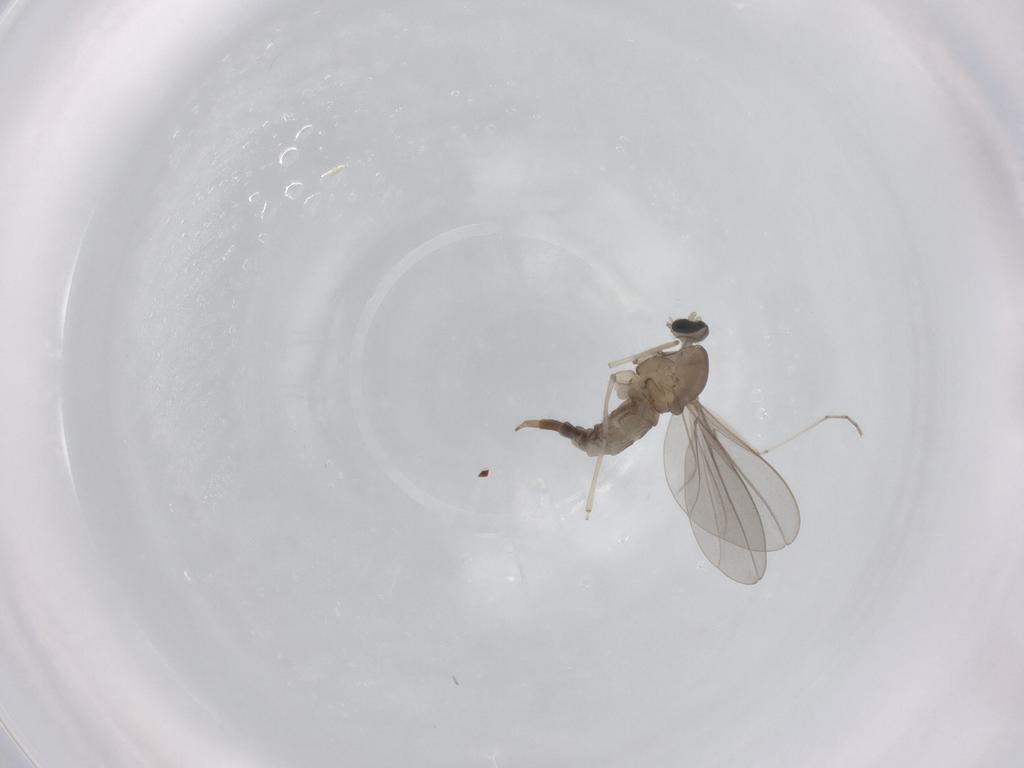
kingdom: Animalia
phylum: Arthropoda
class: Insecta
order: Diptera
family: Cecidomyiidae
